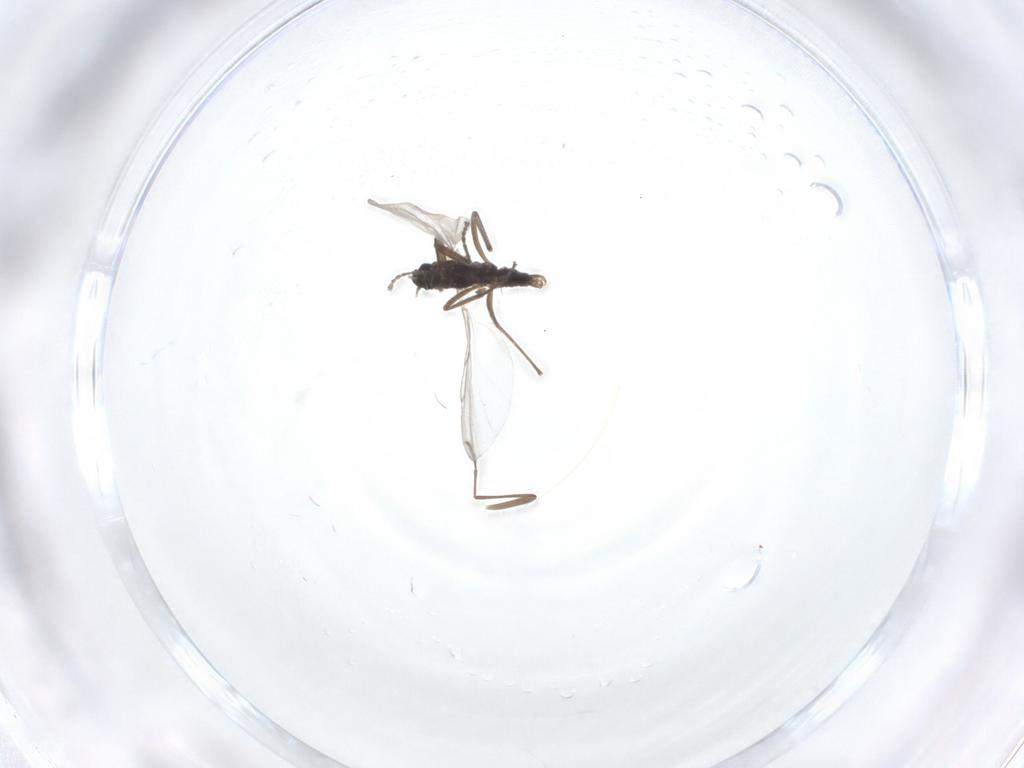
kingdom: Animalia
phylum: Arthropoda
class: Insecta
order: Diptera
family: Cecidomyiidae
